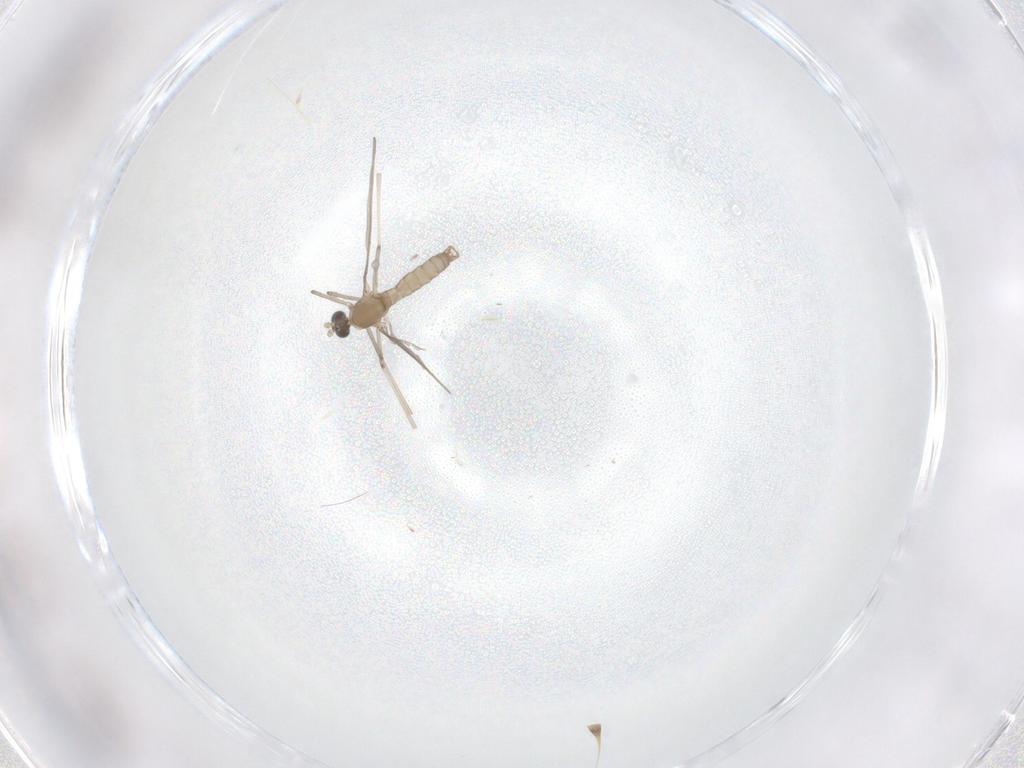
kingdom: Animalia
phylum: Arthropoda
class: Insecta
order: Diptera
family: Cecidomyiidae
